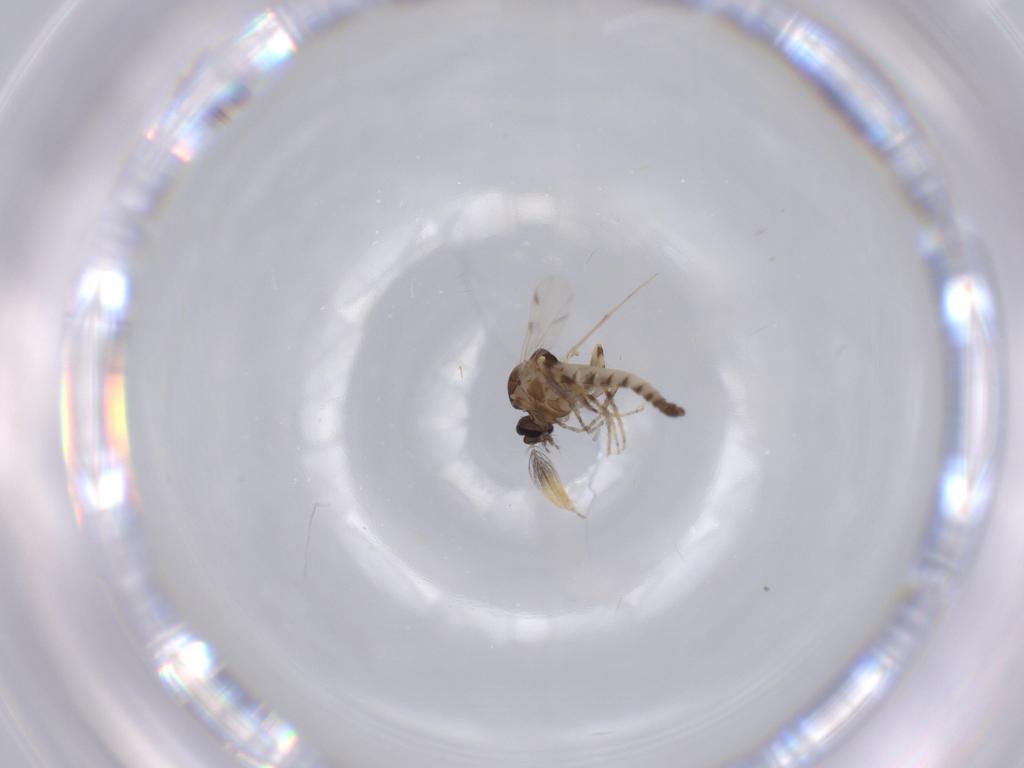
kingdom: Animalia
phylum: Arthropoda
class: Insecta
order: Diptera
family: Ceratopogonidae
